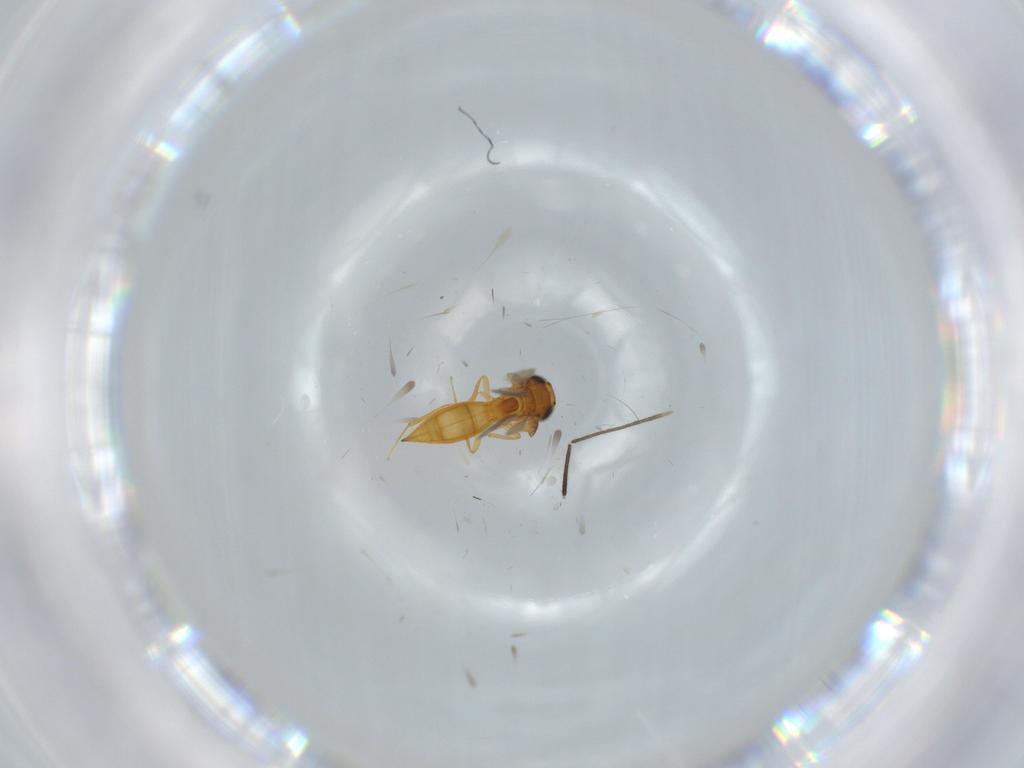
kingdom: Animalia
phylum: Arthropoda
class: Insecta
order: Hymenoptera
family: Scelionidae
